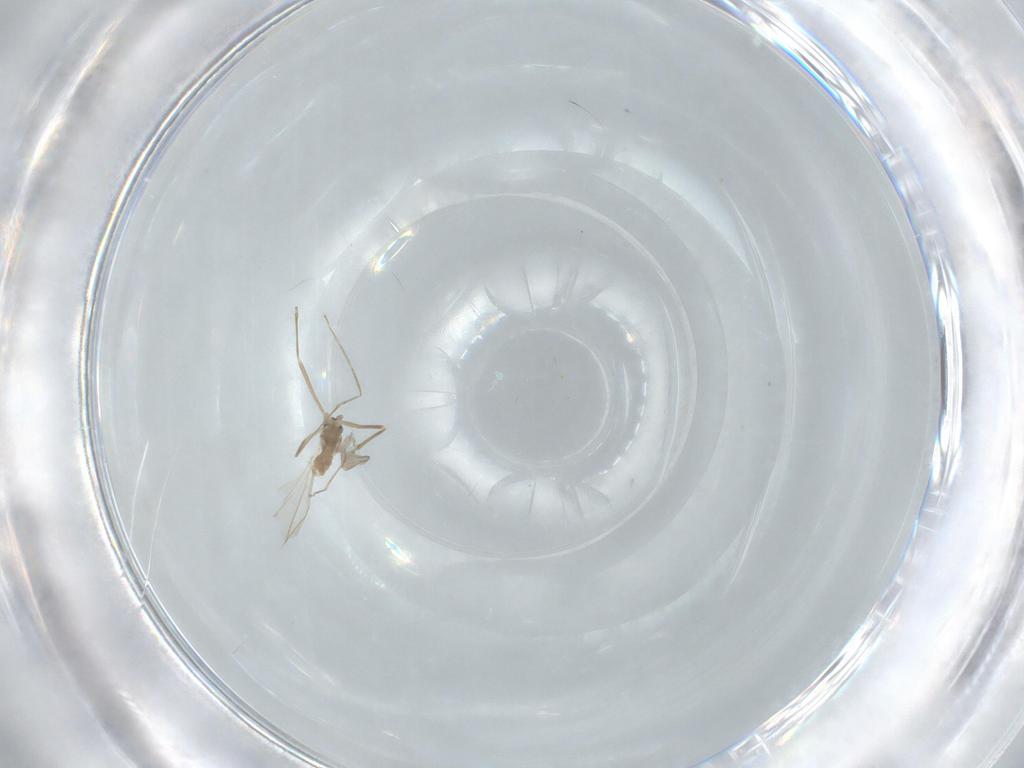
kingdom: Animalia
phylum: Arthropoda
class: Insecta
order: Diptera
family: Cecidomyiidae
